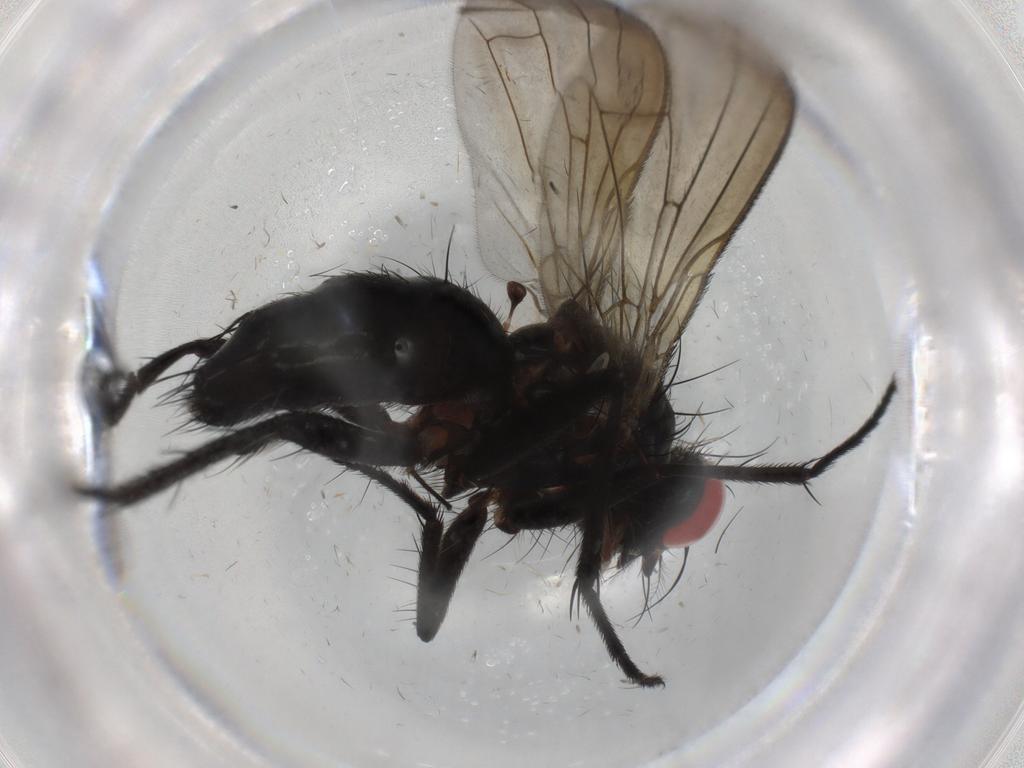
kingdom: Animalia
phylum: Arthropoda
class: Insecta
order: Diptera
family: Sarcophagidae
